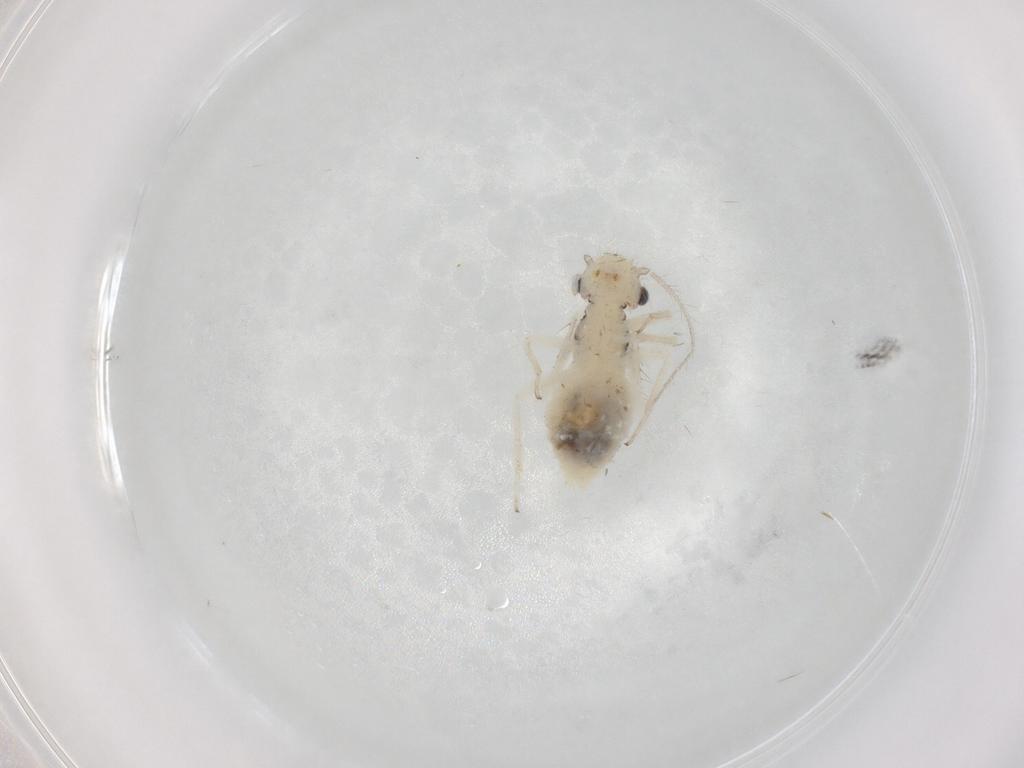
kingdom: Animalia
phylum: Arthropoda
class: Insecta
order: Psocodea
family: Caeciliusidae
